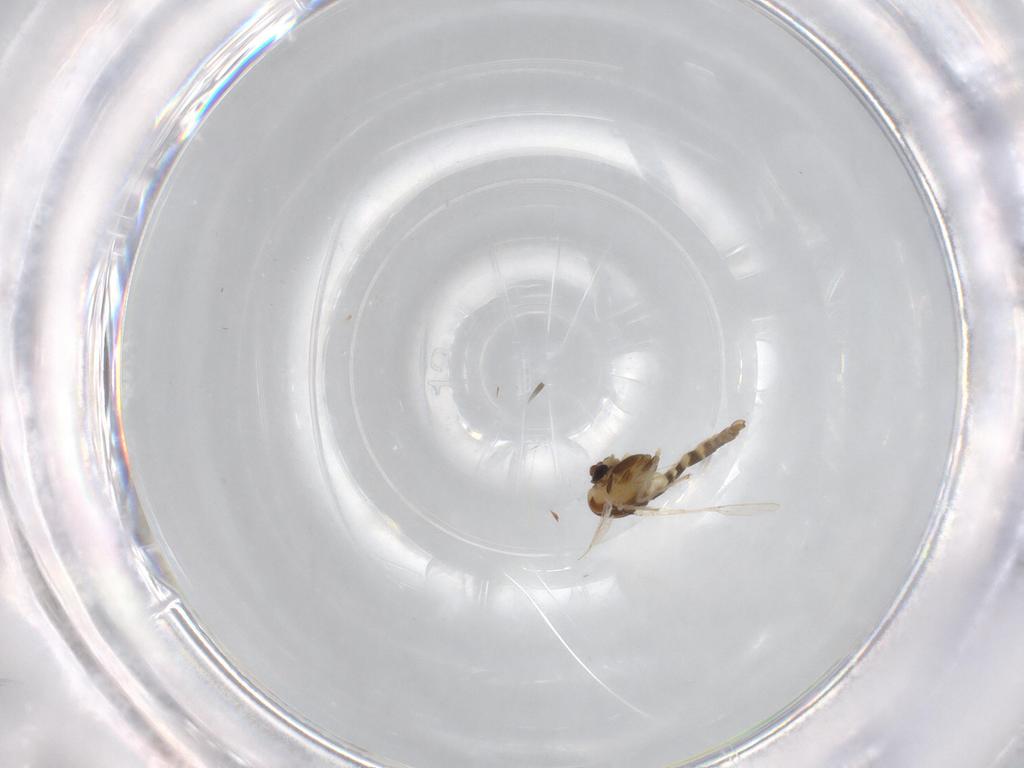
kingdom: Animalia
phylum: Arthropoda
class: Insecta
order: Diptera
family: Chironomidae
